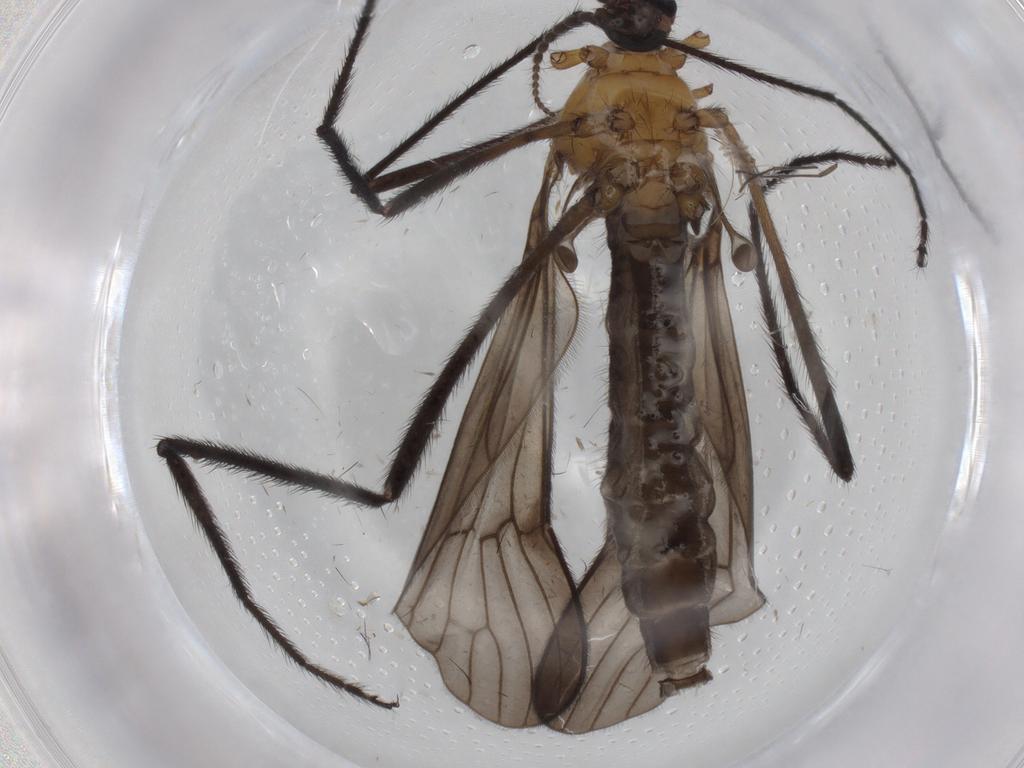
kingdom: Animalia
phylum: Arthropoda
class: Insecta
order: Diptera
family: Limoniidae
